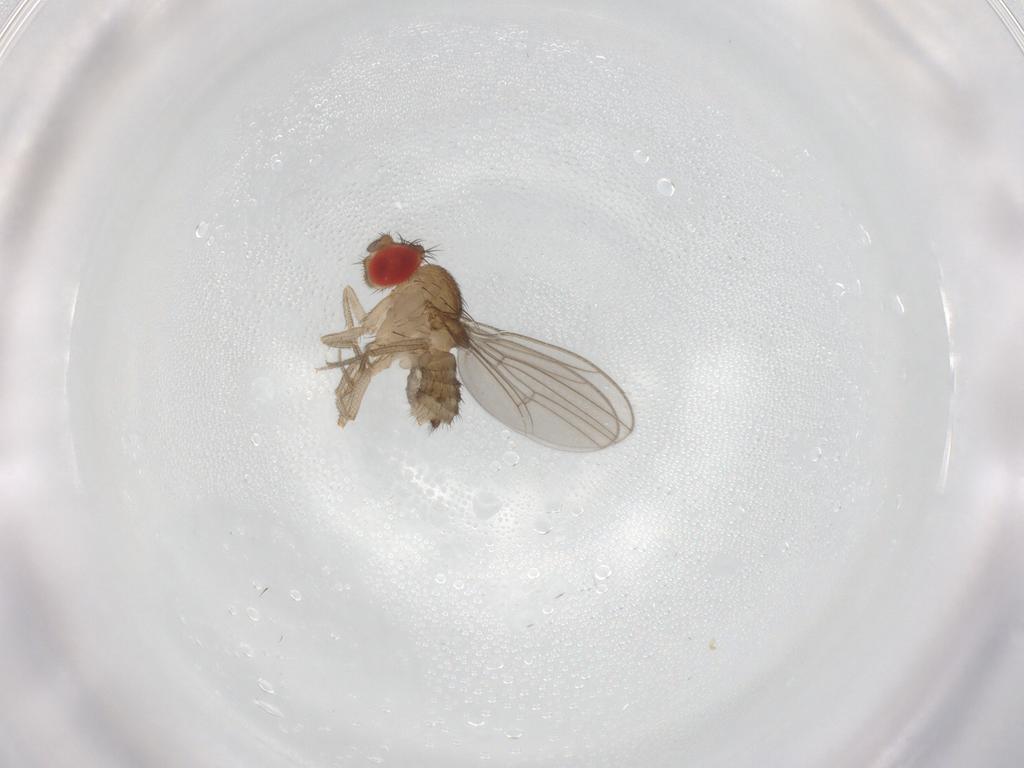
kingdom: Animalia
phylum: Arthropoda
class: Insecta
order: Diptera
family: Drosophilidae
